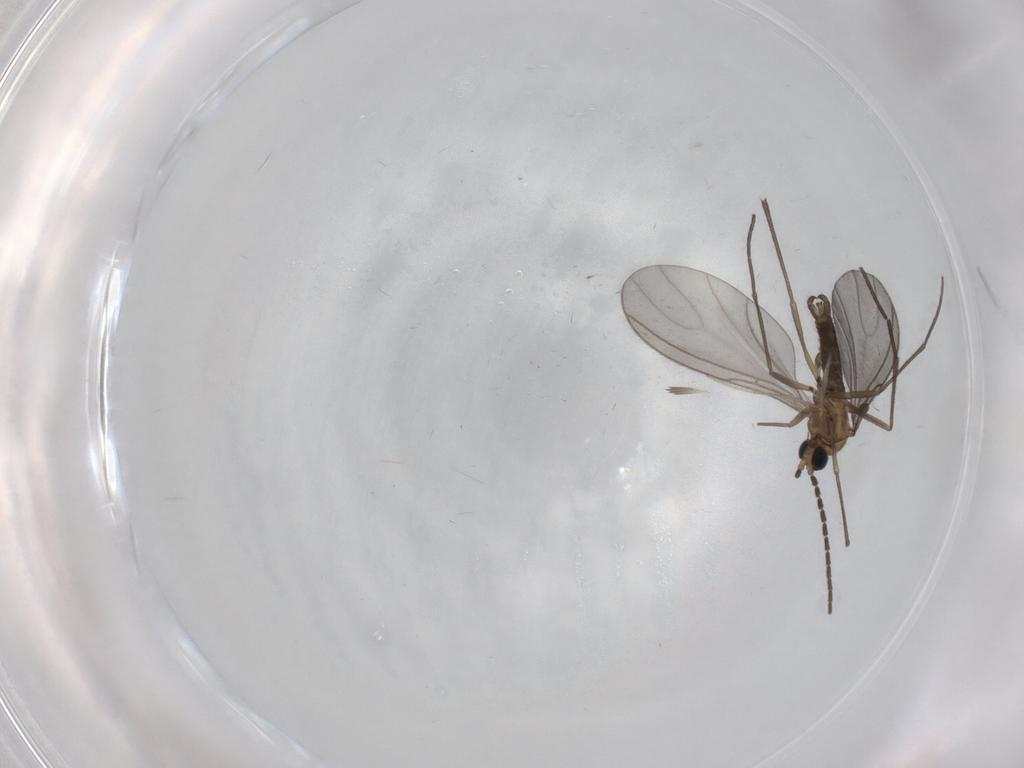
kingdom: Animalia
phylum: Arthropoda
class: Insecta
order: Diptera
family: Sciaridae
